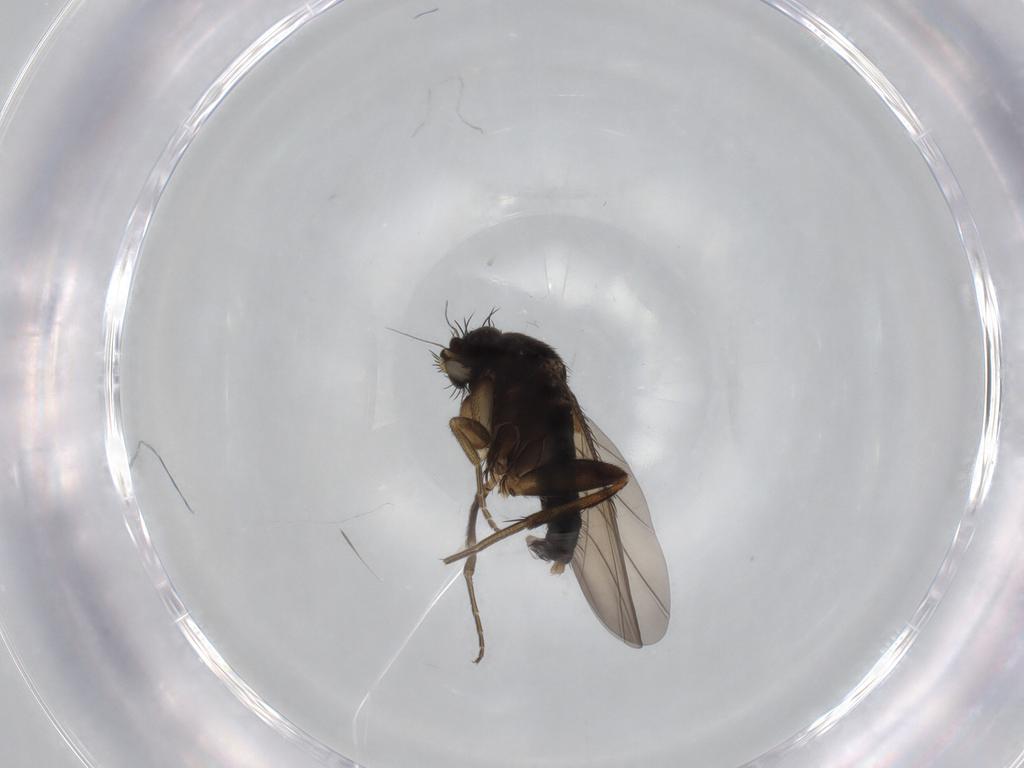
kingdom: Animalia
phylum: Arthropoda
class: Insecta
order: Diptera
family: Phoridae
